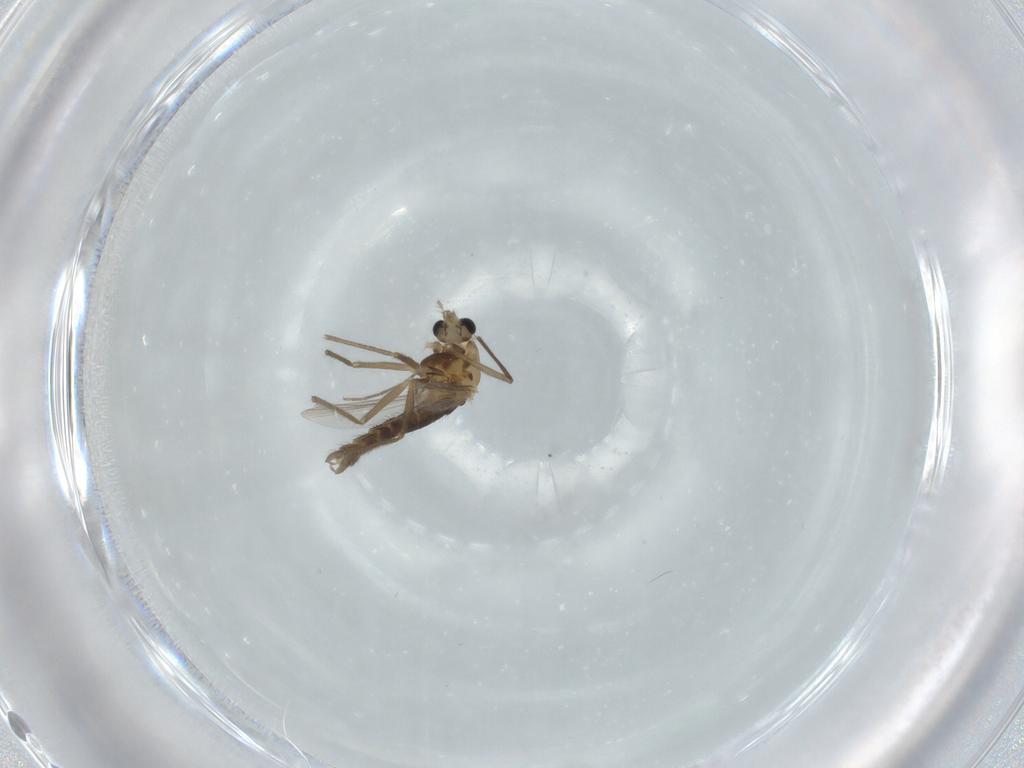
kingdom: Animalia
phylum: Arthropoda
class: Insecta
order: Diptera
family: Chironomidae
